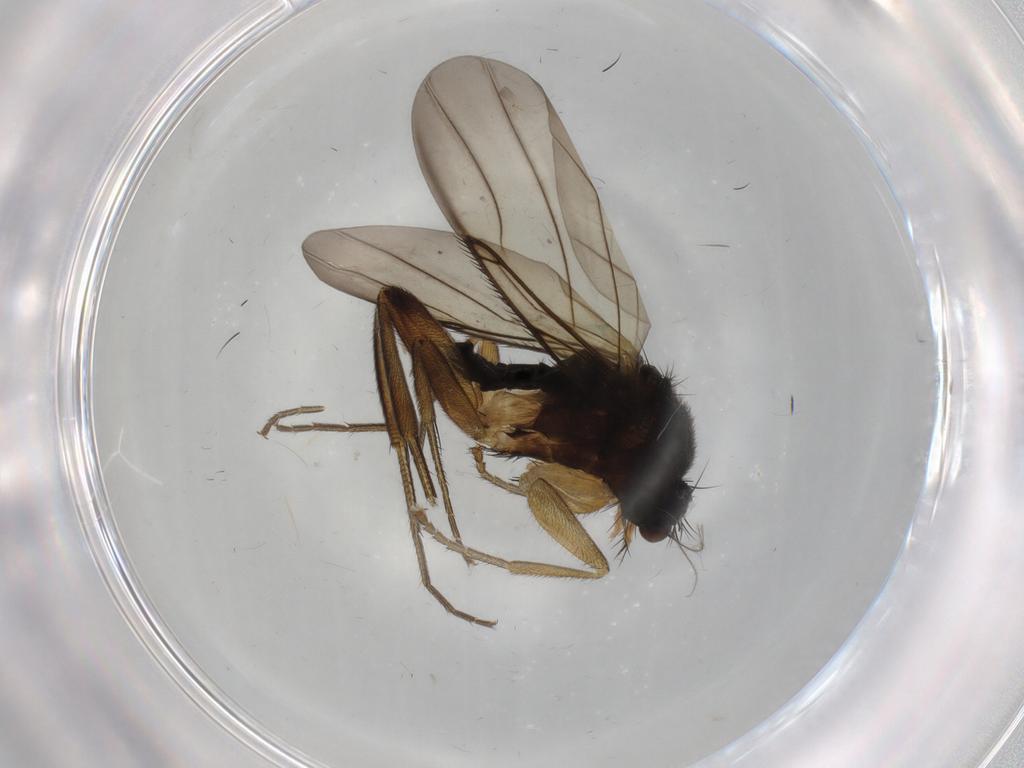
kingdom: Animalia
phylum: Arthropoda
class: Insecta
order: Diptera
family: Phoridae
